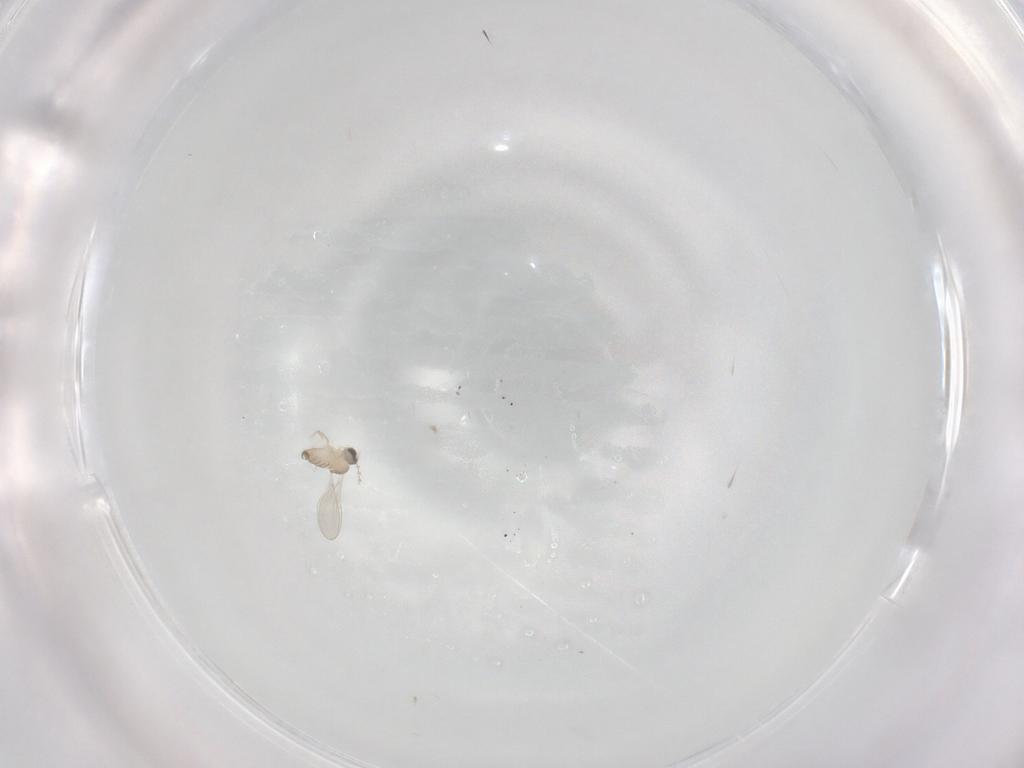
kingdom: Animalia
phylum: Arthropoda
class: Insecta
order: Diptera
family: Cecidomyiidae
